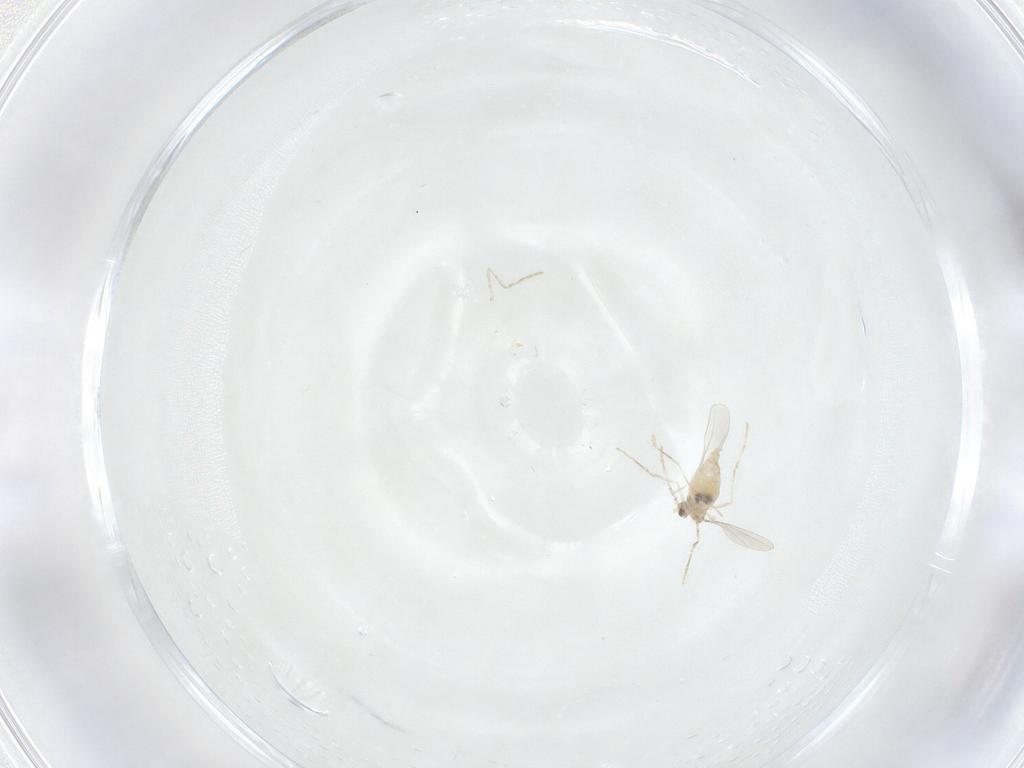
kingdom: Animalia
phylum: Arthropoda
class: Insecta
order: Diptera
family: Cecidomyiidae
